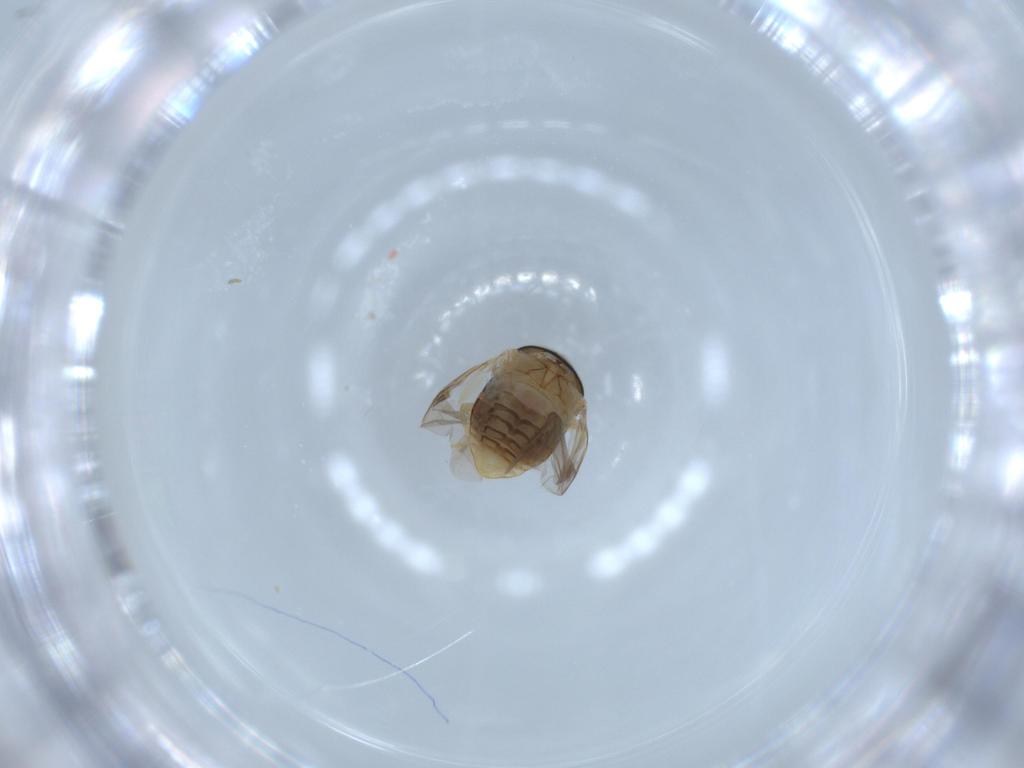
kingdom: Animalia
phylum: Arthropoda
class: Insecta
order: Coleoptera
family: Coccinellidae
